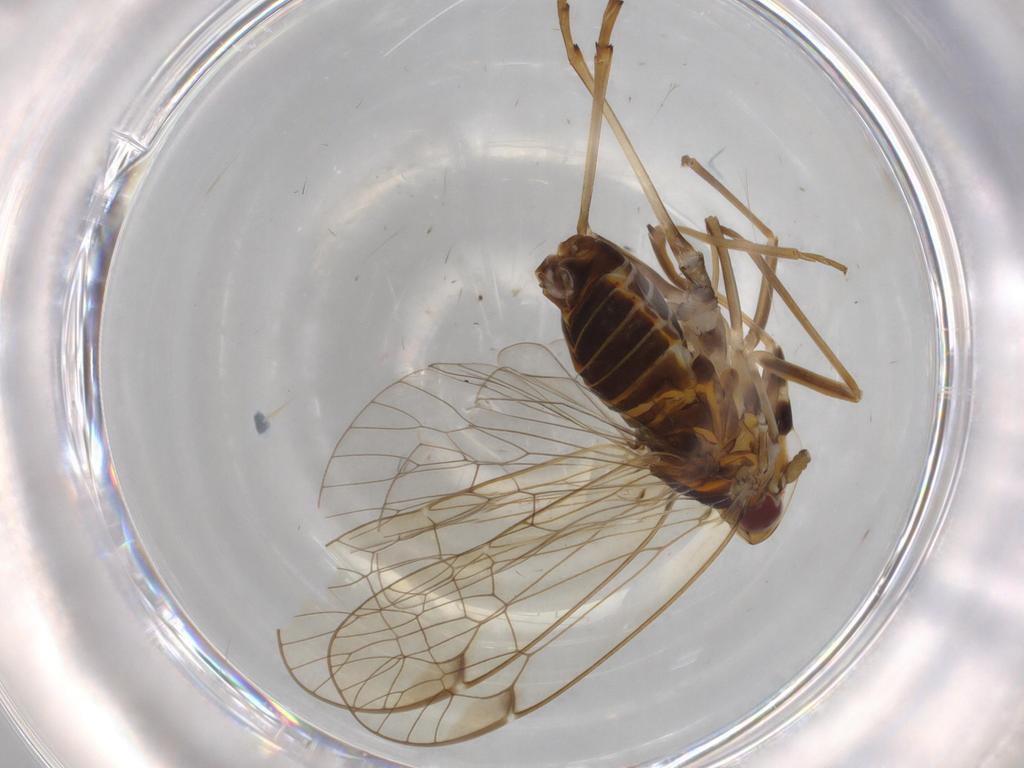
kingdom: Animalia
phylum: Arthropoda
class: Insecta
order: Hemiptera
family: Kinnaridae
